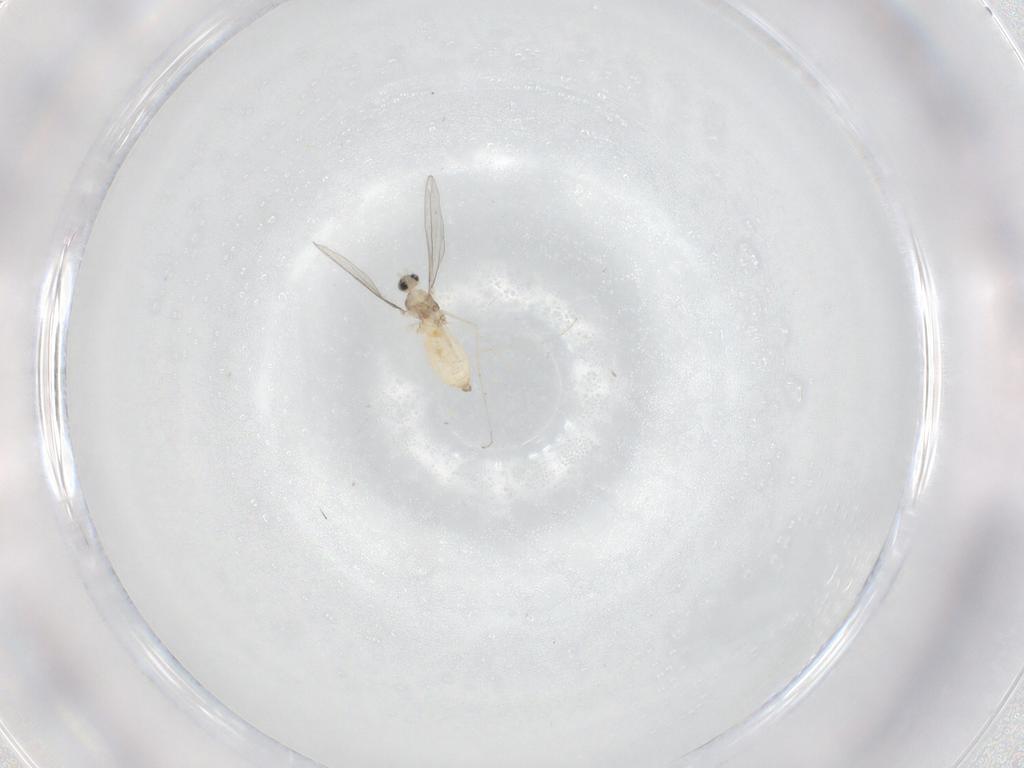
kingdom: Animalia
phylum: Arthropoda
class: Insecta
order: Diptera
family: Cecidomyiidae
